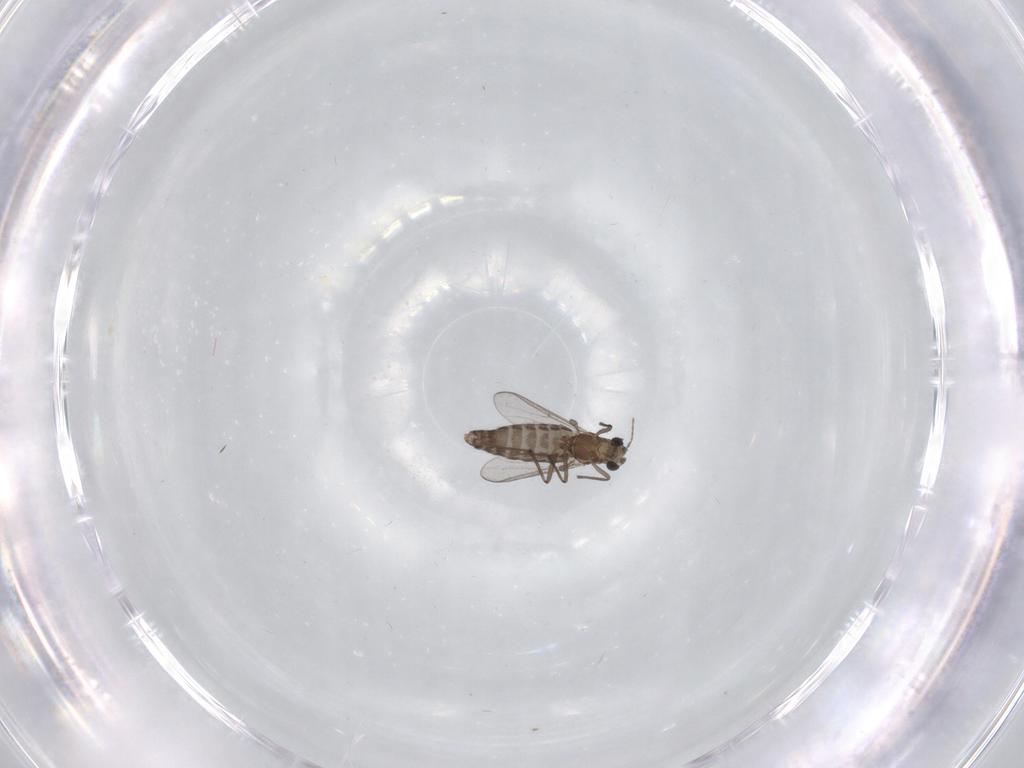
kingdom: Animalia
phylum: Arthropoda
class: Insecta
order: Diptera
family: Chironomidae
